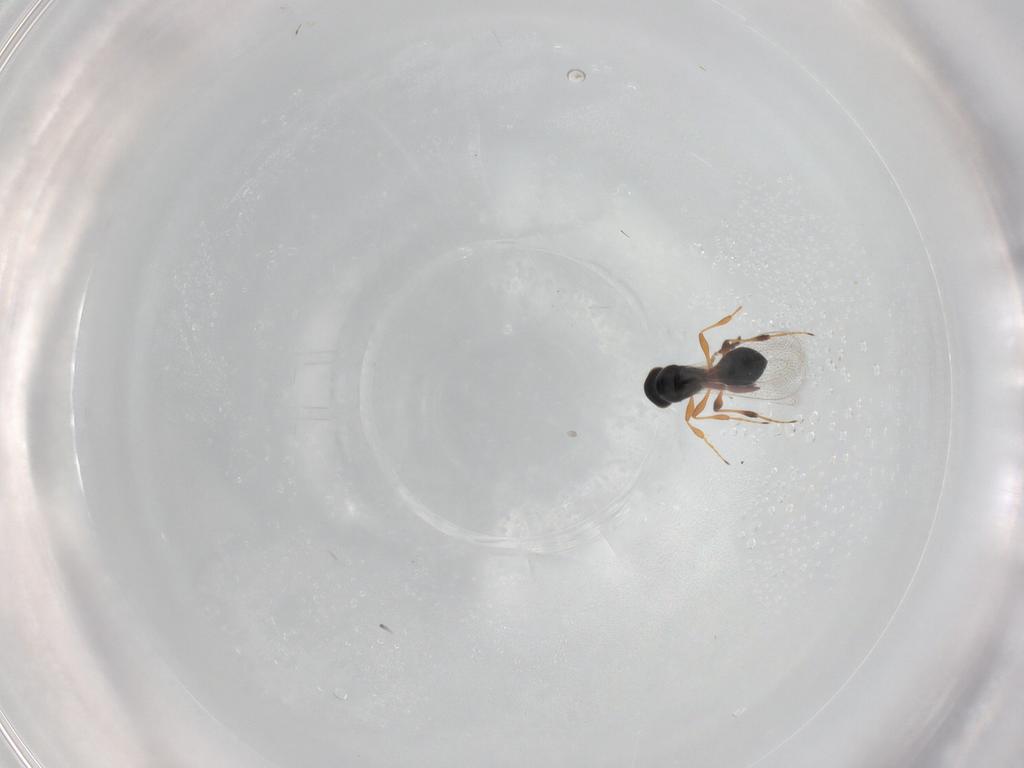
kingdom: Animalia
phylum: Arthropoda
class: Insecta
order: Hymenoptera
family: Platygastridae
